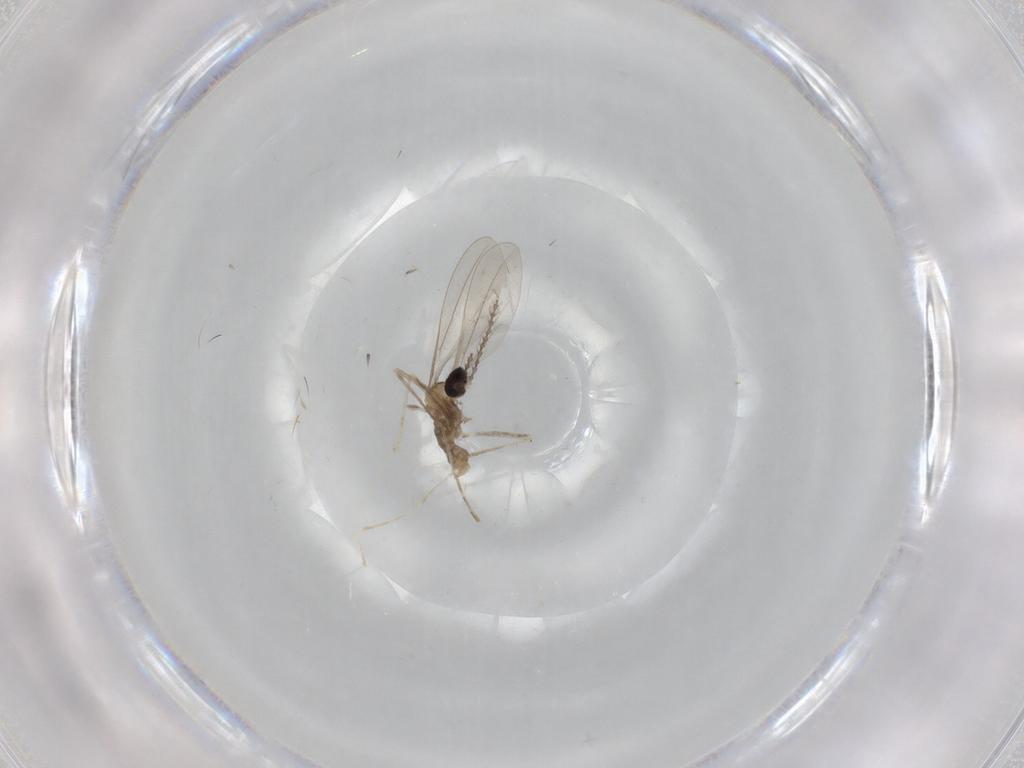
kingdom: Animalia
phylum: Arthropoda
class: Insecta
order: Diptera
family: Cecidomyiidae
